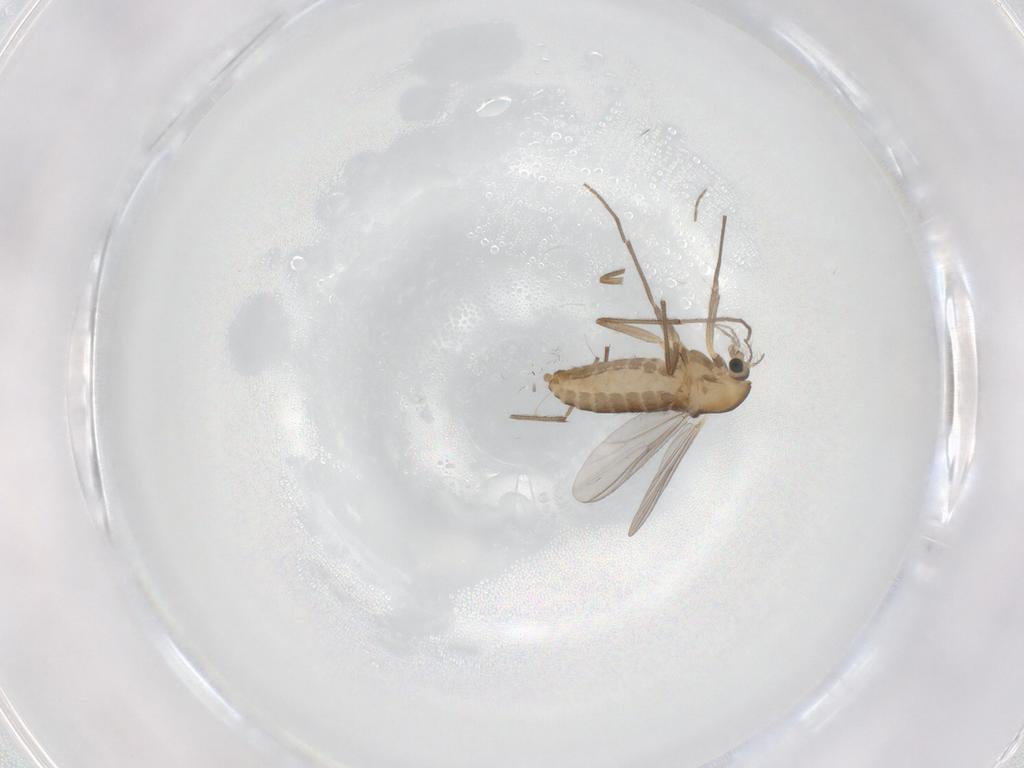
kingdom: Animalia
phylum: Arthropoda
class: Insecta
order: Diptera
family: Chironomidae
